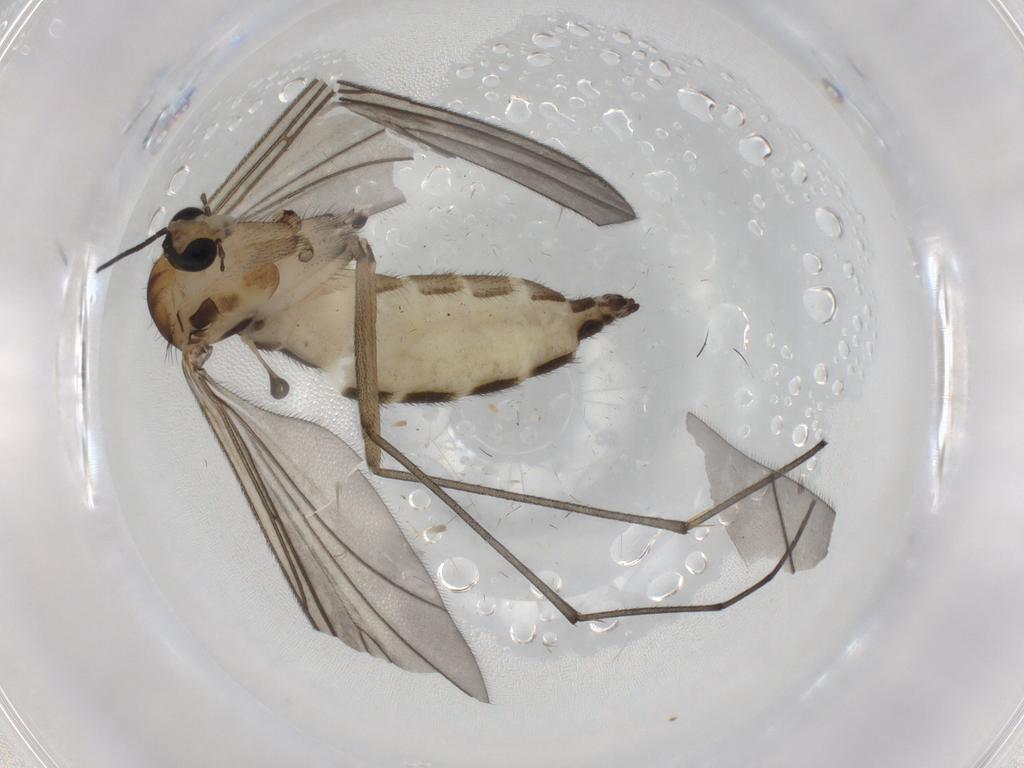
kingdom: Animalia
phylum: Arthropoda
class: Insecta
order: Diptera
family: Sciaridae
